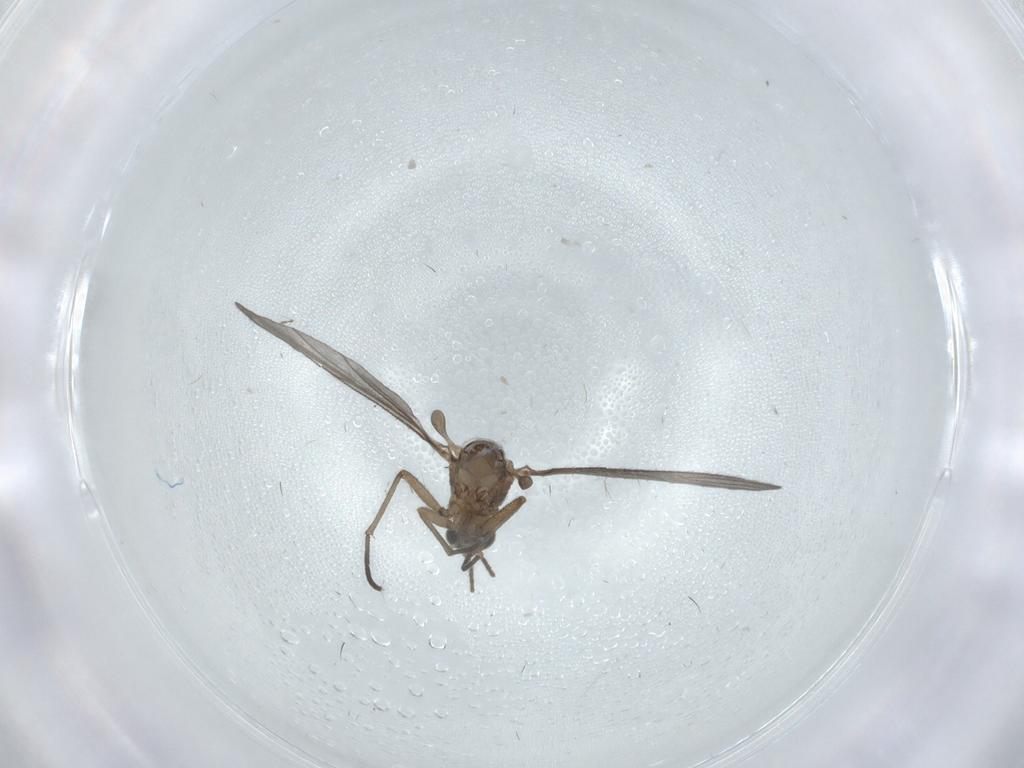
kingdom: Animalia
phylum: Arthropoda
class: Insecta
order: Diptera
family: Chironomidae
